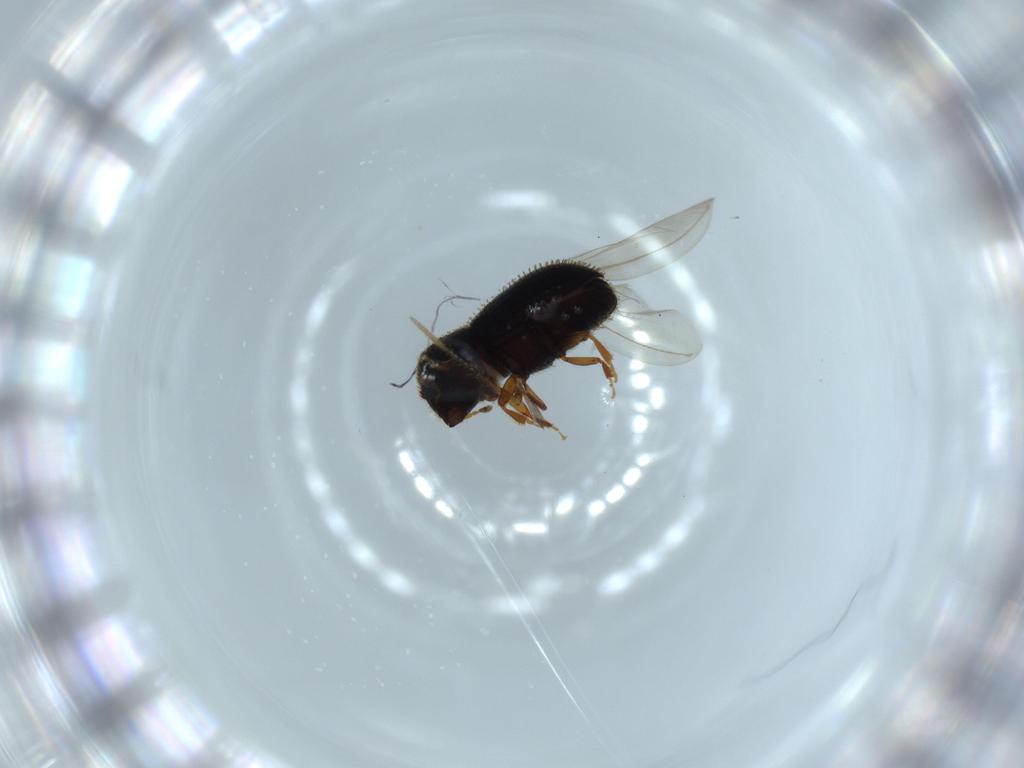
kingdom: Animalia
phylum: Arthropoda
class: Insecta
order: Coleoptera
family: Curculionidae
